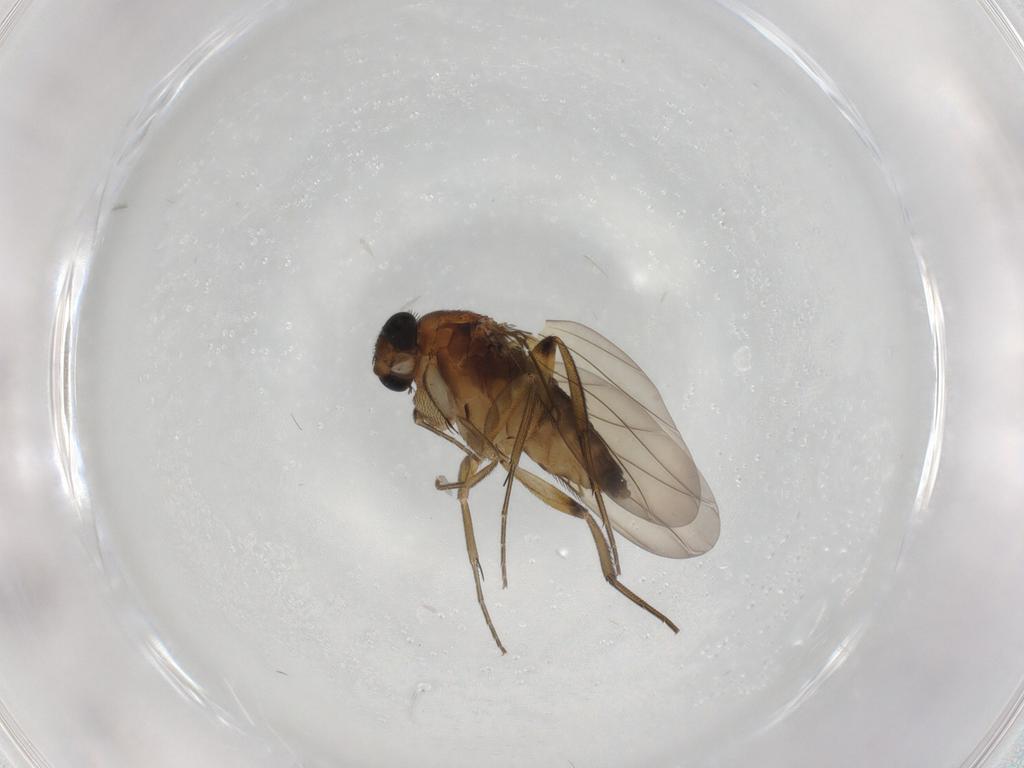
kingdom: Animalia
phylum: Arthropoda
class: Insecta
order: Diptera
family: Phoridae
